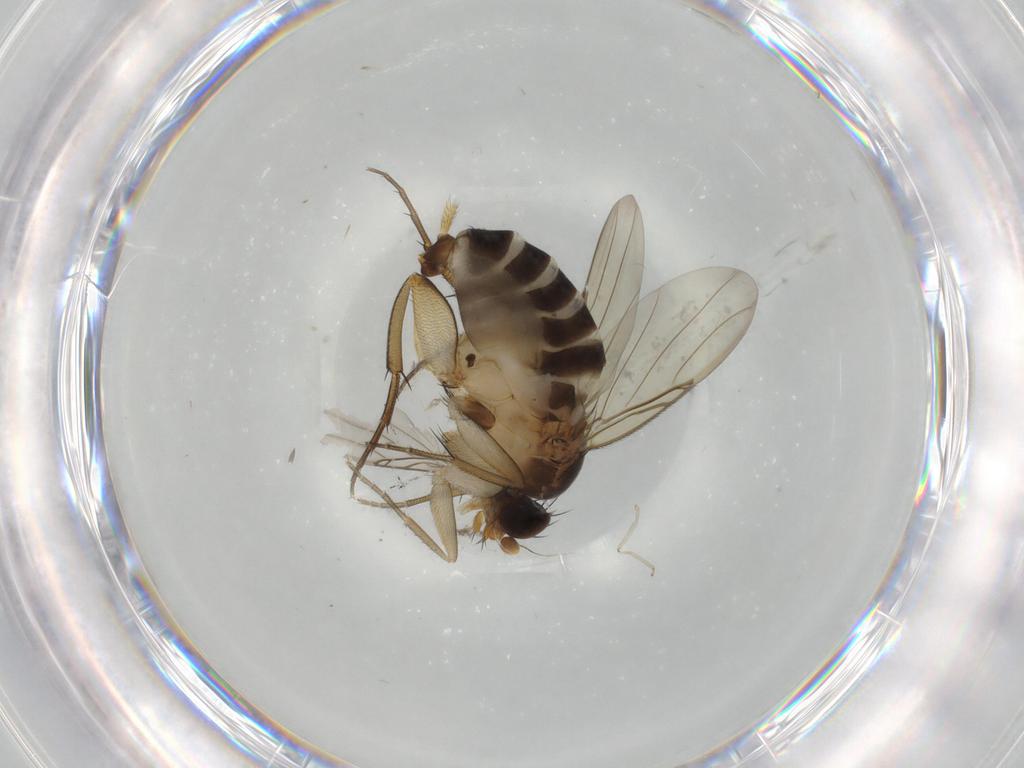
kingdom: Animalia
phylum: Arthropoda
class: Insecta
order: Diptera
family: Phoridae
